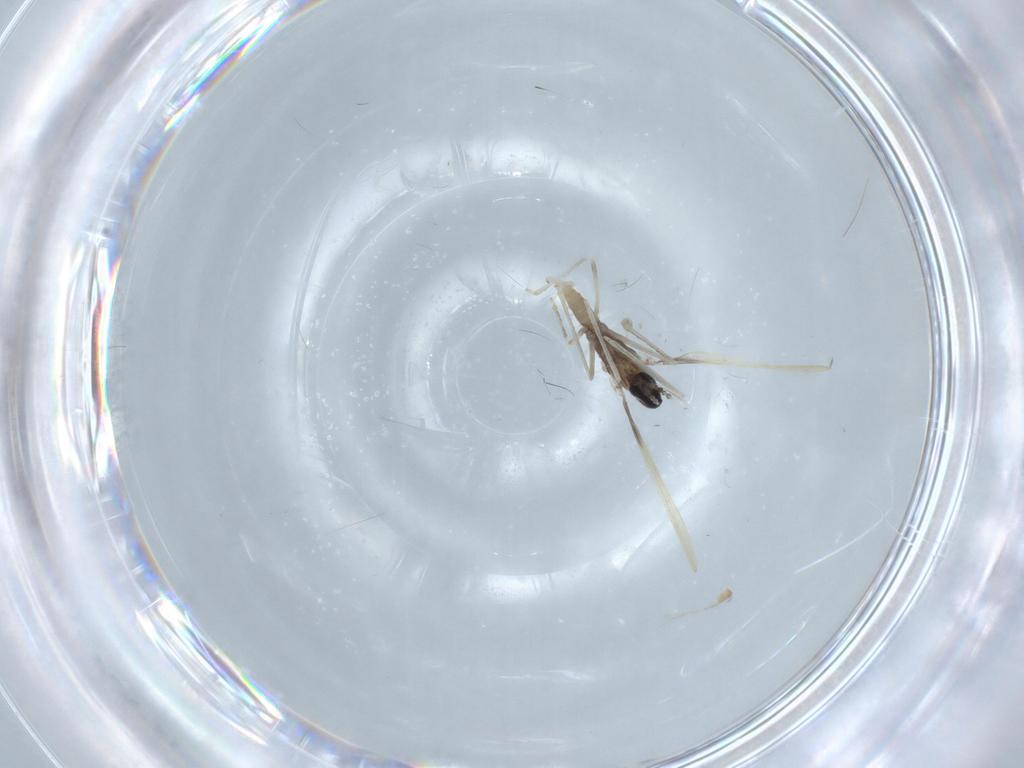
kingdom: Animalia
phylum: Arthropoda
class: Insecta
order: Diptera
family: Cecidomyiidae
